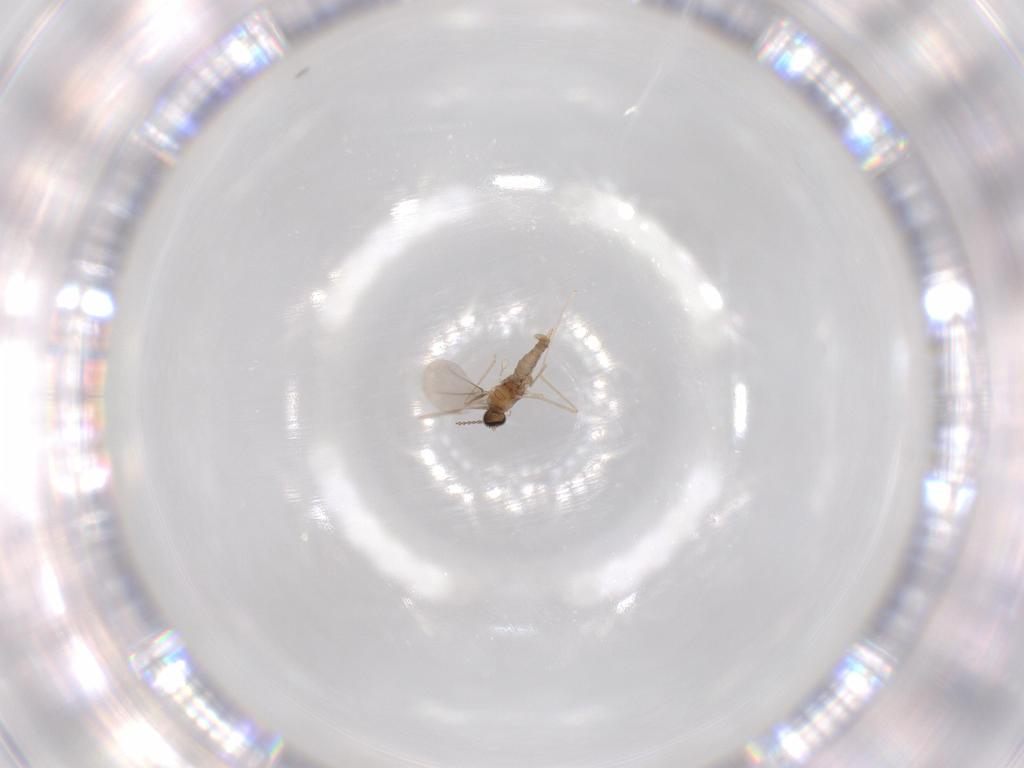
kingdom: Animalia
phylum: Arthropoda
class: Insecta
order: Diptera
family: Cecidomyiidae
